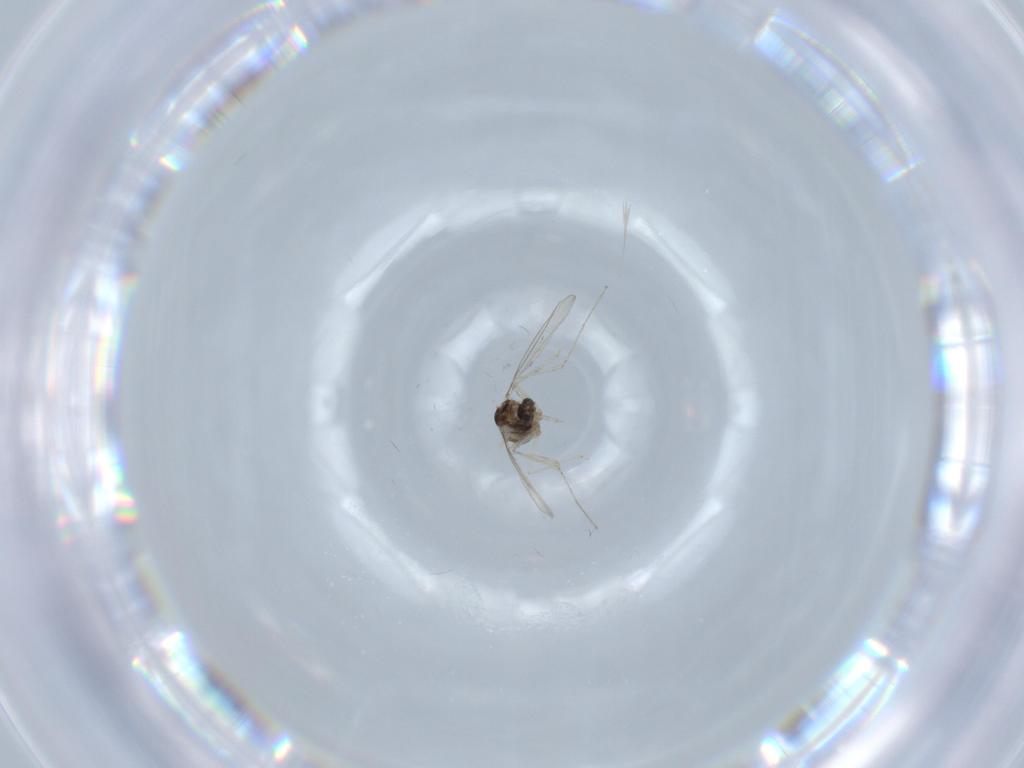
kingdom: Animalia
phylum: Arthropoda
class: Insecta
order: Diptera
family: Cecidomyiidae
